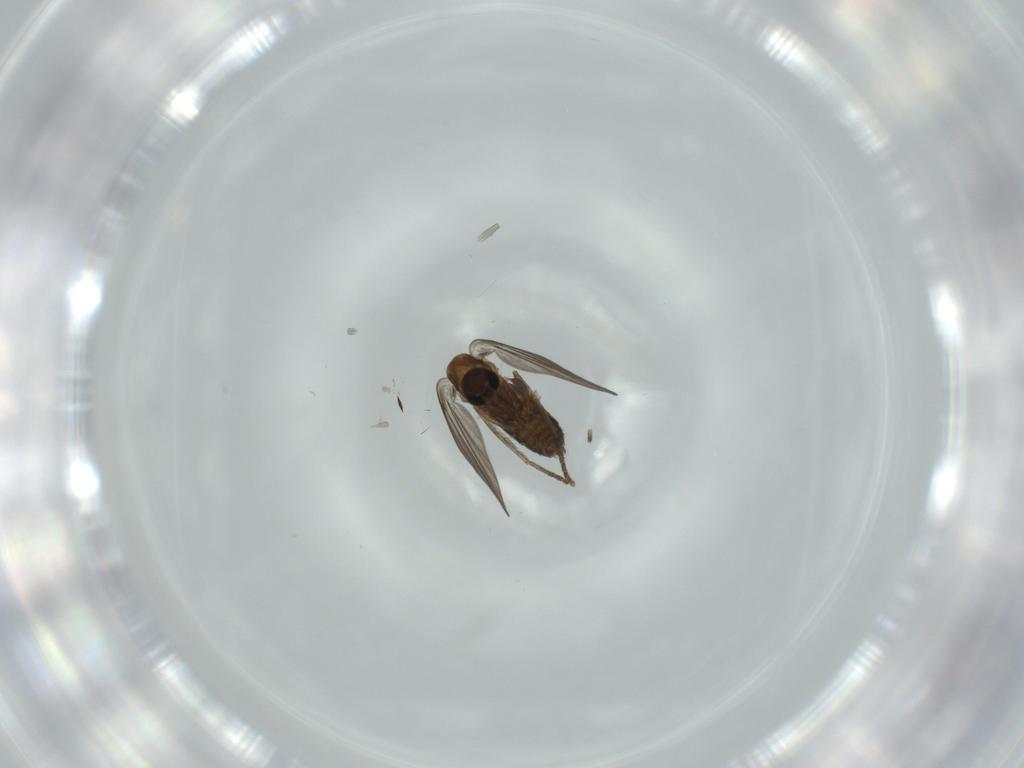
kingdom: Animalia
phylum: Arthropoda
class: Insecta
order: Diptera
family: Psychodidae
